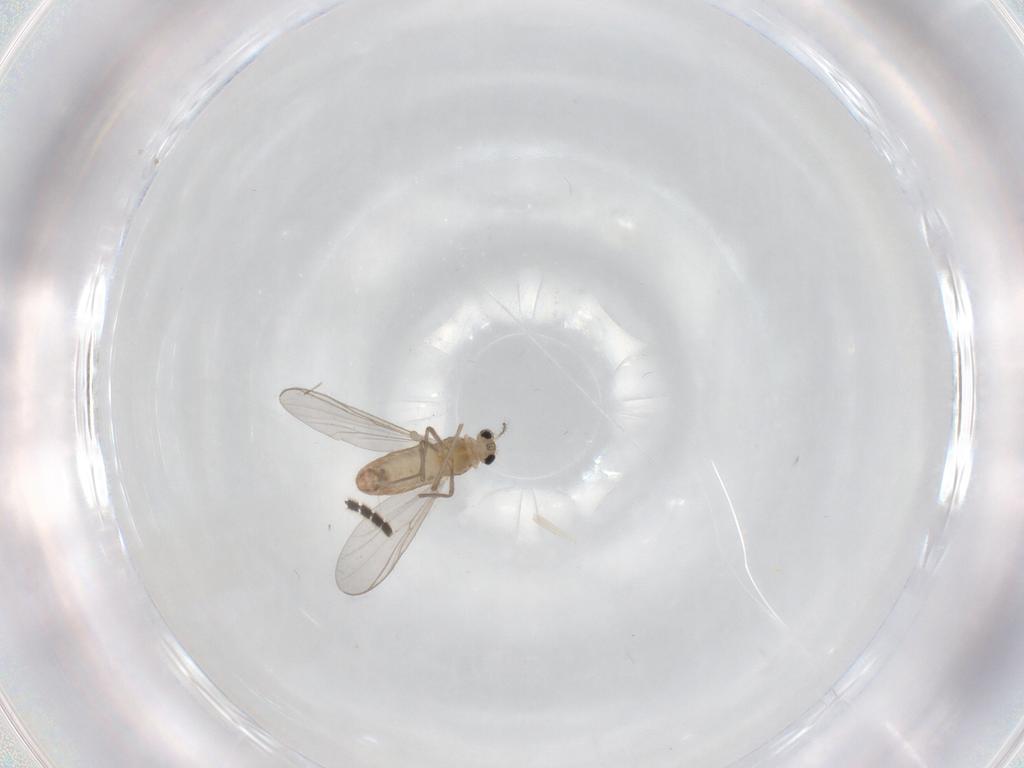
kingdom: Animalia
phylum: Arthropoda
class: Insecta
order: Diptera
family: Chironomidae
